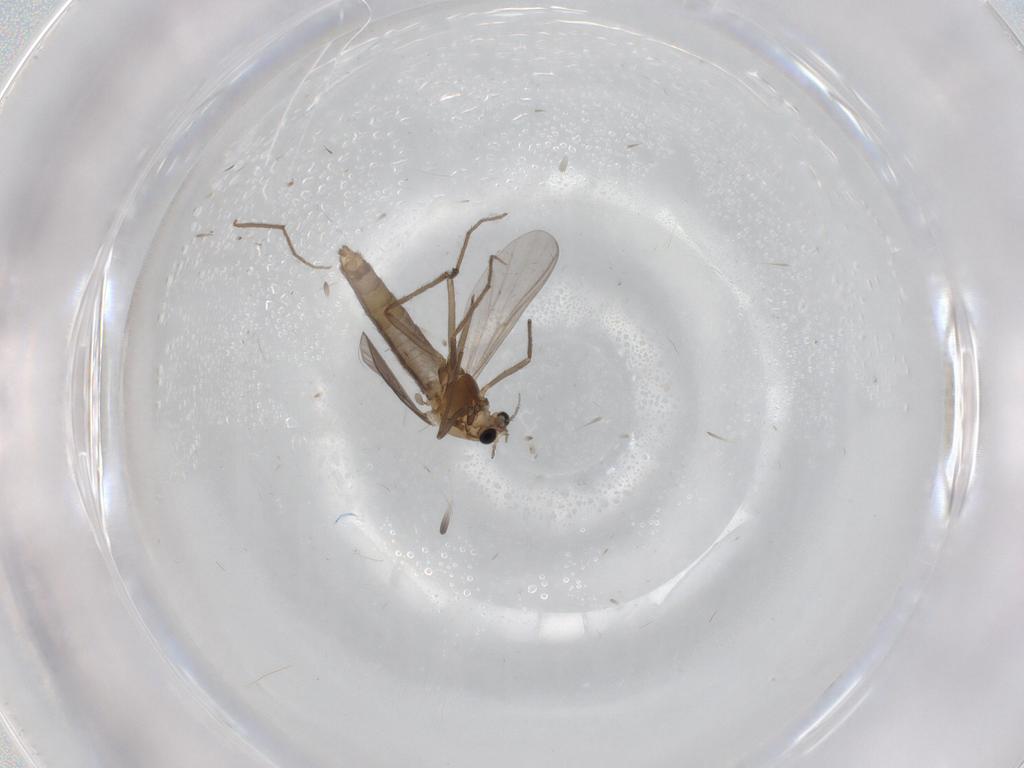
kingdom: Animalia
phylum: Arthropoda
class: Insecta
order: Diptera
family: Chironomidae
